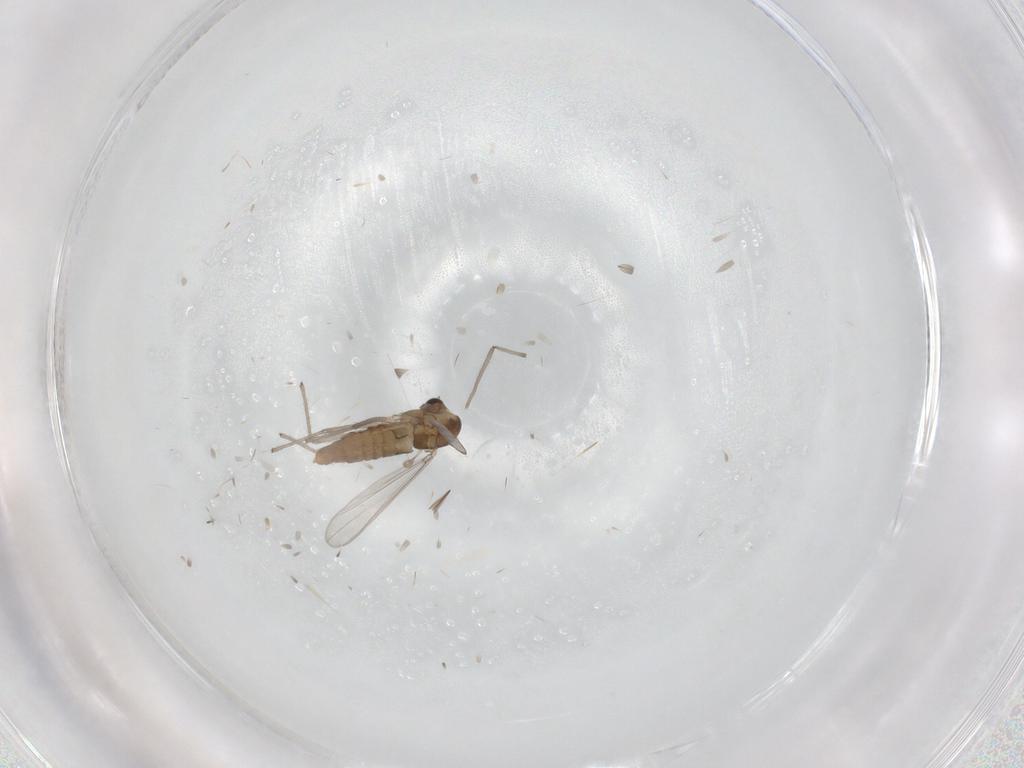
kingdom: Animalia
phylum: Arthropoda
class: Insecta
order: Diptera
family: Chironomidae
